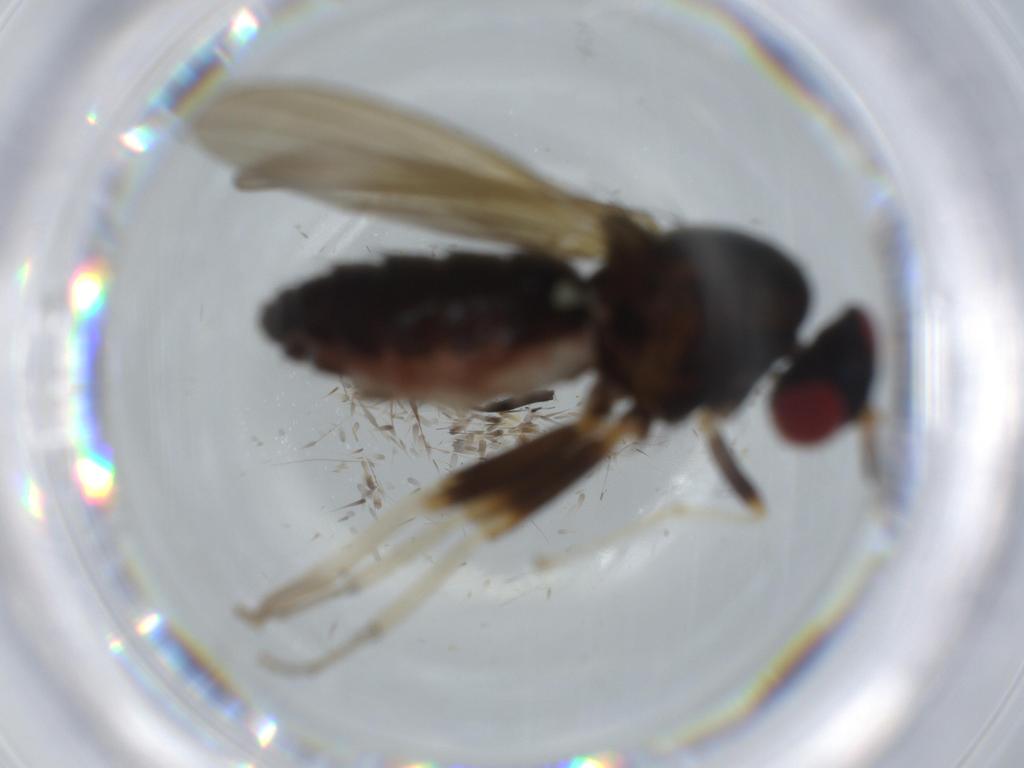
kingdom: Animalia
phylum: Arthropoda
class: Insecta
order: Diptera
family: Milichiidae
